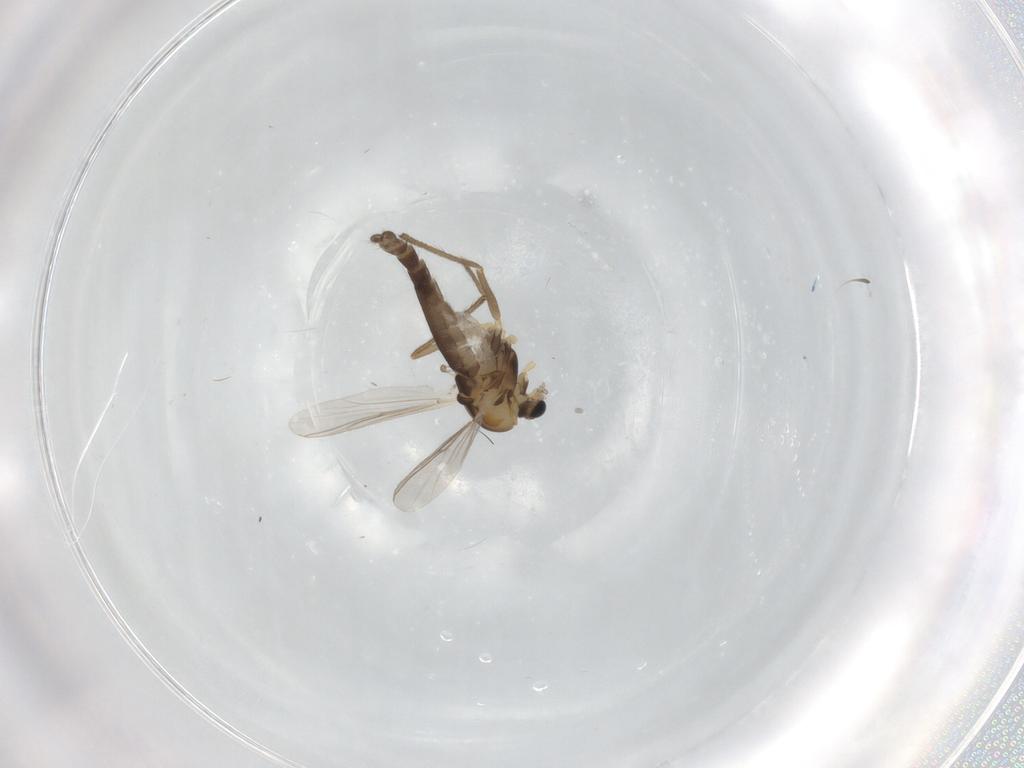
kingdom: Animalia
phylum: Arthropoda
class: Insecta
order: Diptera
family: Chironomidae
